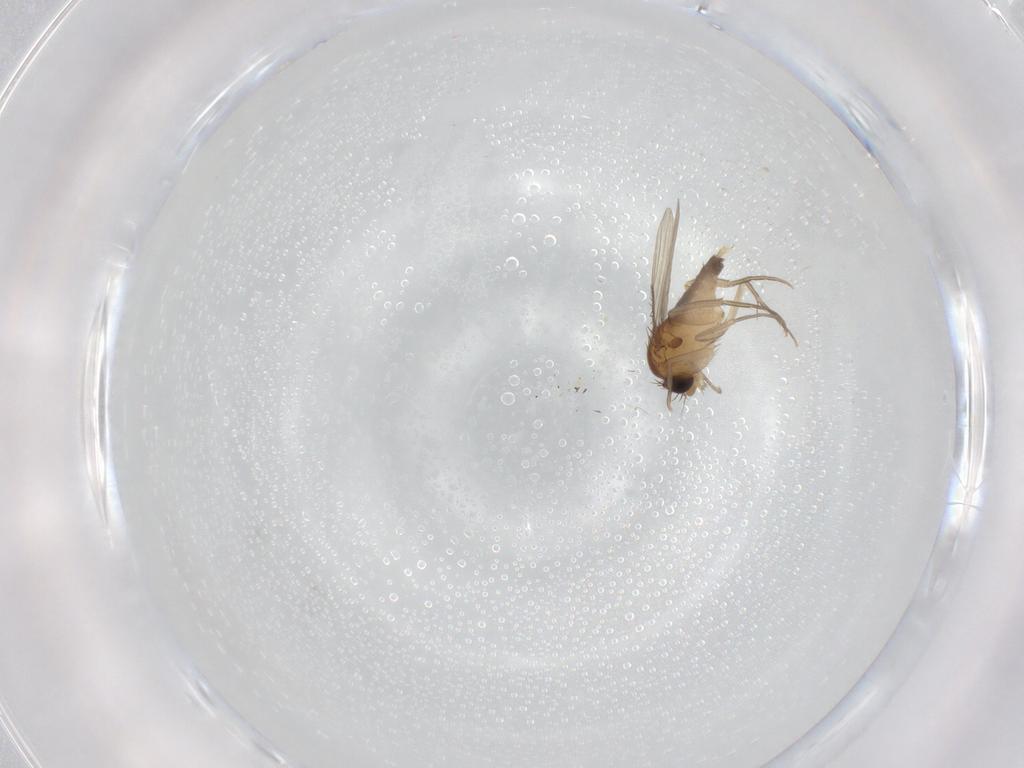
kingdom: Animalia
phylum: Arthropoda
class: Insecta
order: Diptera
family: Phoridae
